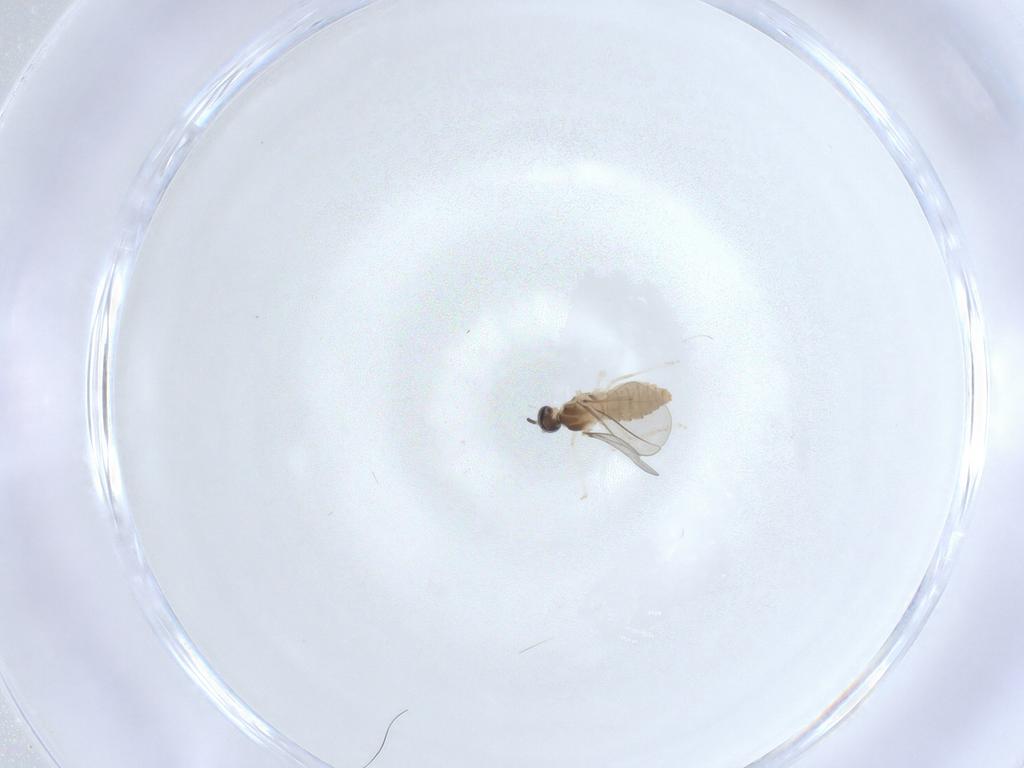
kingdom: Animalia
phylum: Arthropoda
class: Insecta
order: Diptera
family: Cecidomyiidae
